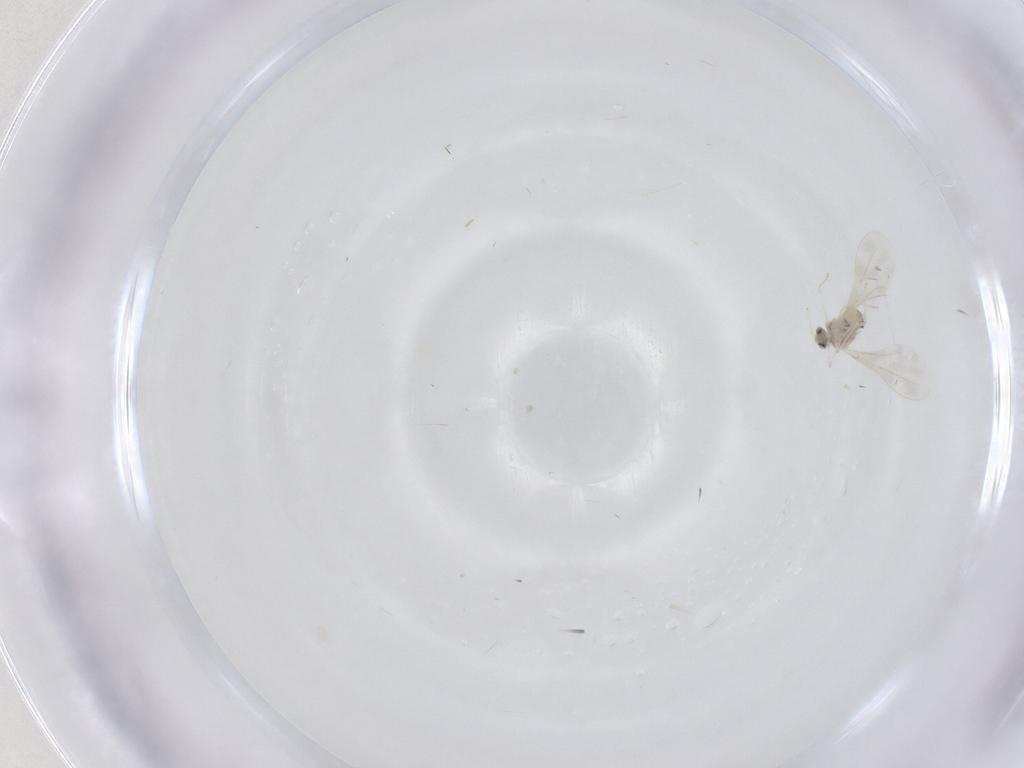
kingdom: Animalia
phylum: Arthropoda
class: Insecta
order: Diptera
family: Cecidomyiidae
